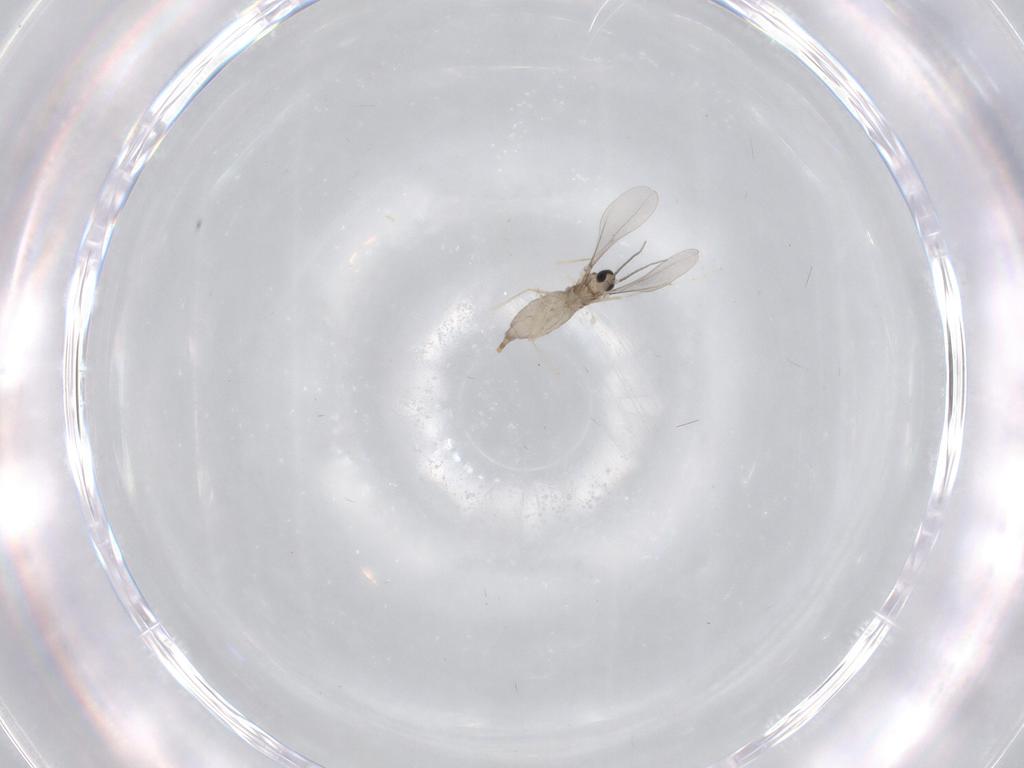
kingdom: Animalia
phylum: Arthropoda
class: Insecta
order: Diptera
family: Cecidomyiidae
